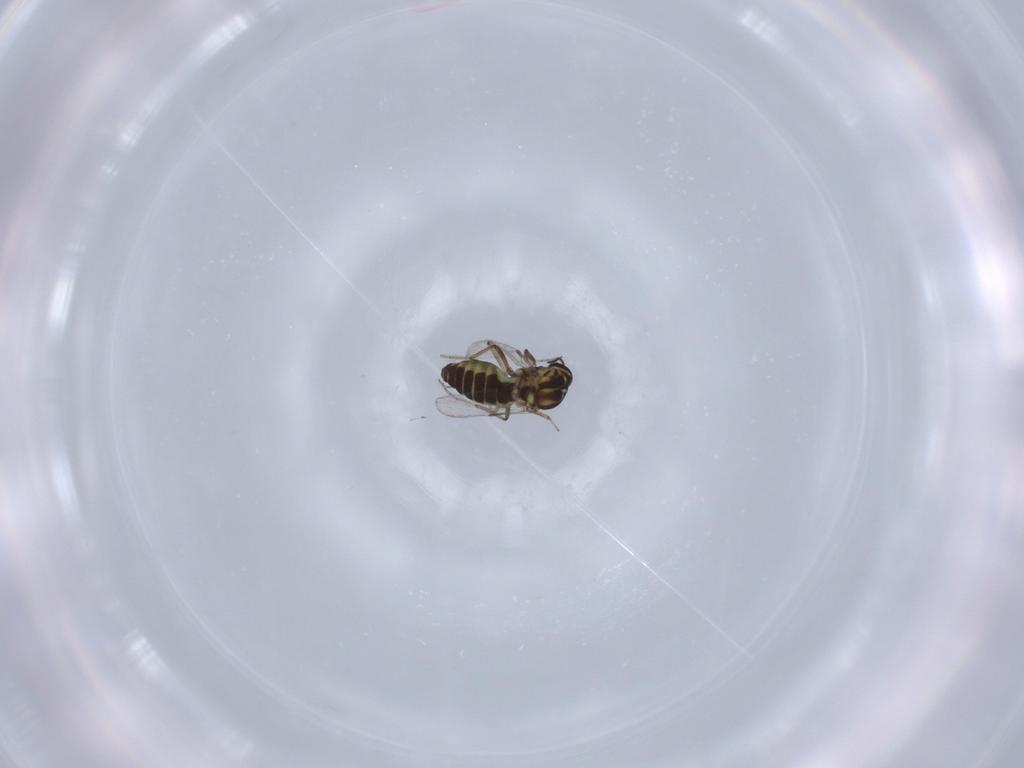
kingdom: Animalia
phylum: Arthropoda
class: Insecta
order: Diptera
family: Ceratopogonidae
